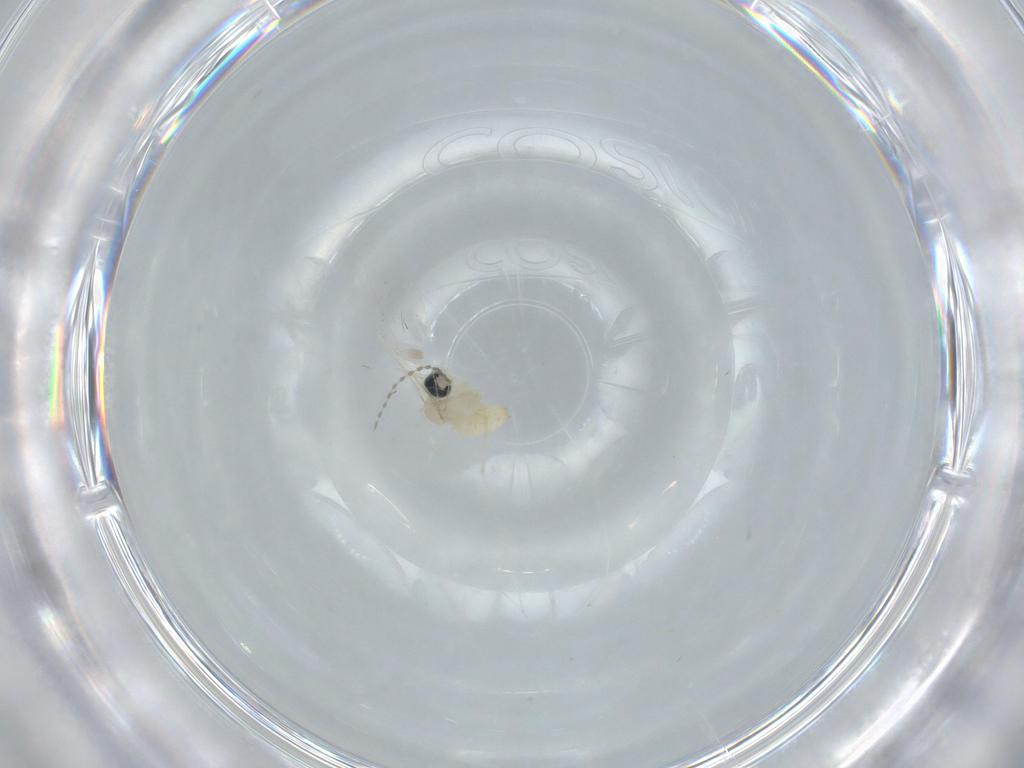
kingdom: Animalia
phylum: Arthropoda
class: Insecta
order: Diptera
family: Cecidomyiidae
